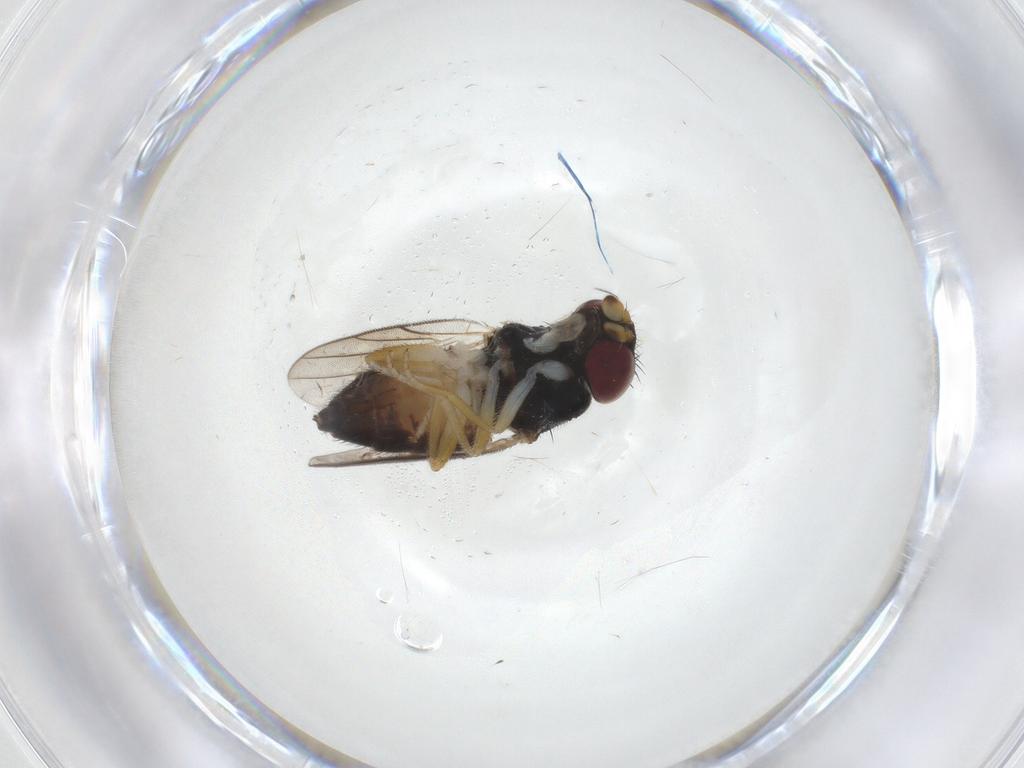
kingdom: Animalia
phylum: Arthropoda
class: Insecta
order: Diptera
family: Chloropidae
